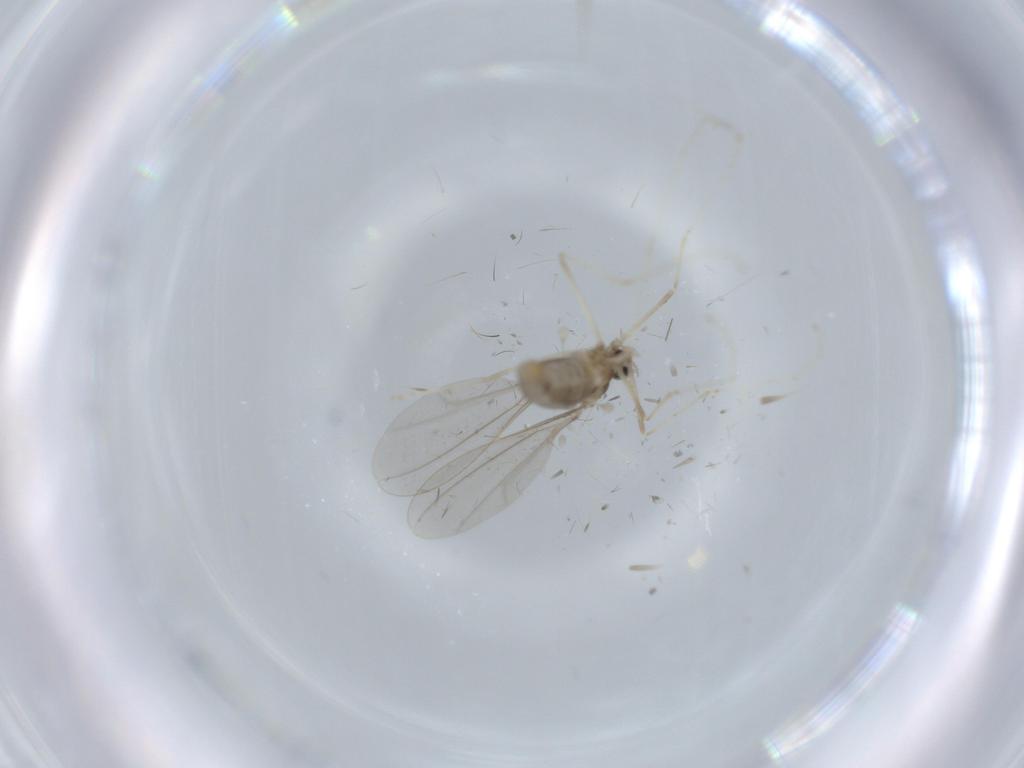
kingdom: Animalia
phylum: Arthropoda
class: Insecta
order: Diptera
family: Cecidomyiidae
